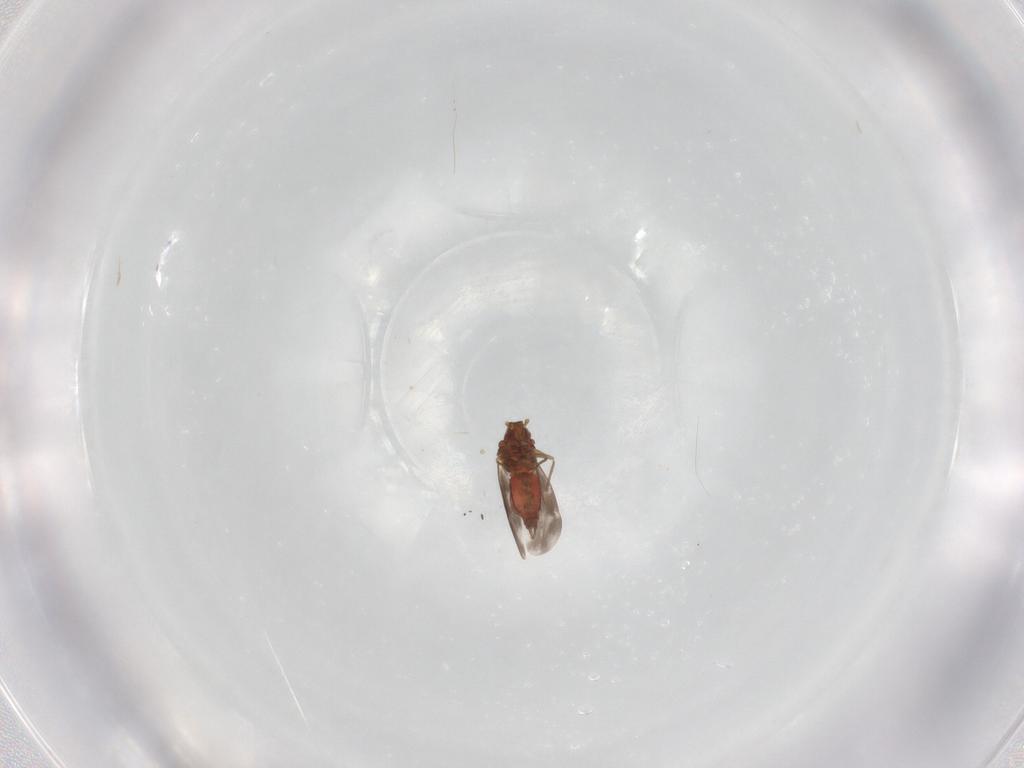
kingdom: Animalia
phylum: Arthropoda
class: Insecta
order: Hemiptera
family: Aleyrodidae
